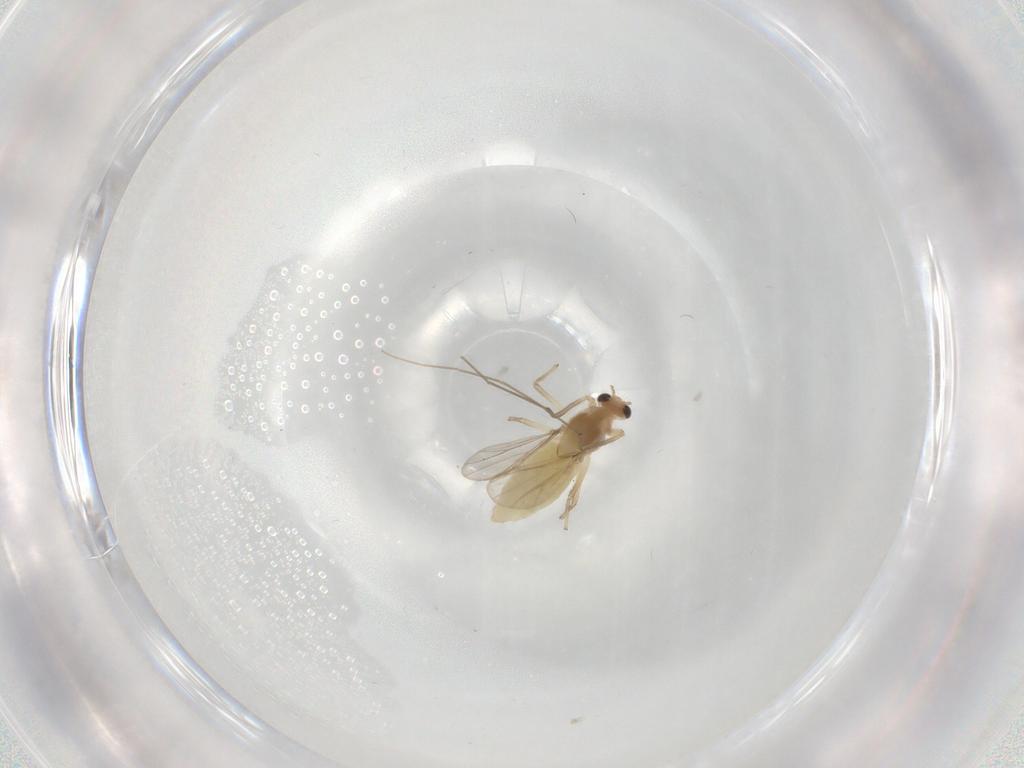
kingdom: Animalia
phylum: Arthropoda
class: Insecta
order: Diptera
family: Chironomidae
